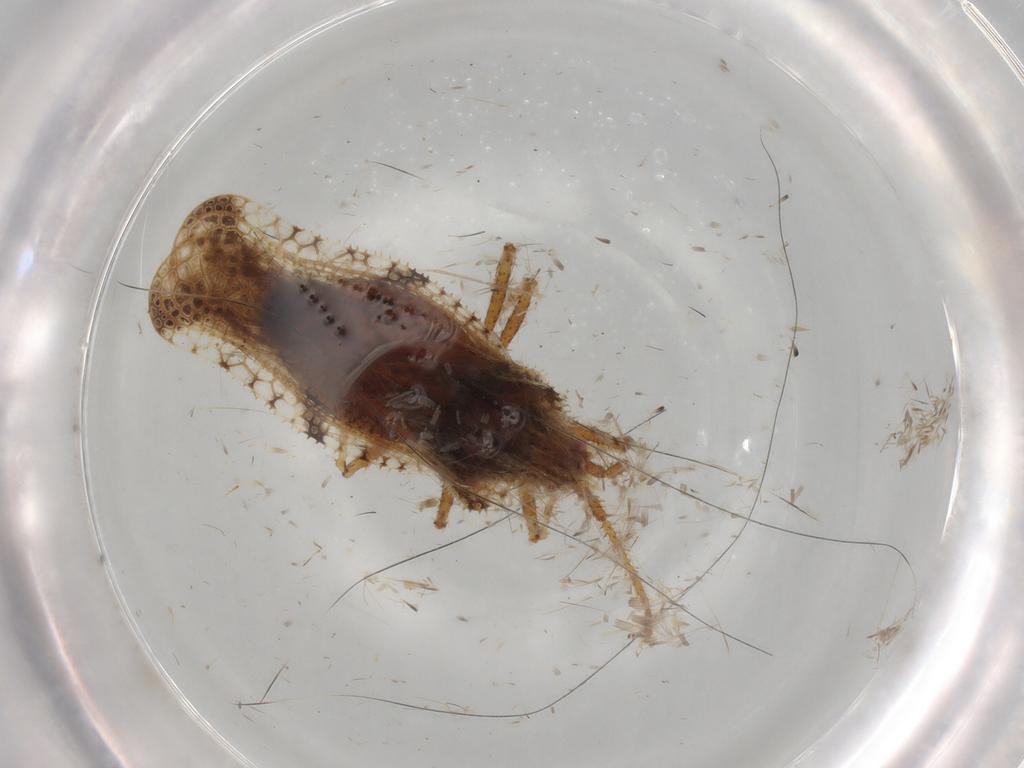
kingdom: Animalia
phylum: Arthropoda
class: Insecta
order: Hemiptera
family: Tingidae
